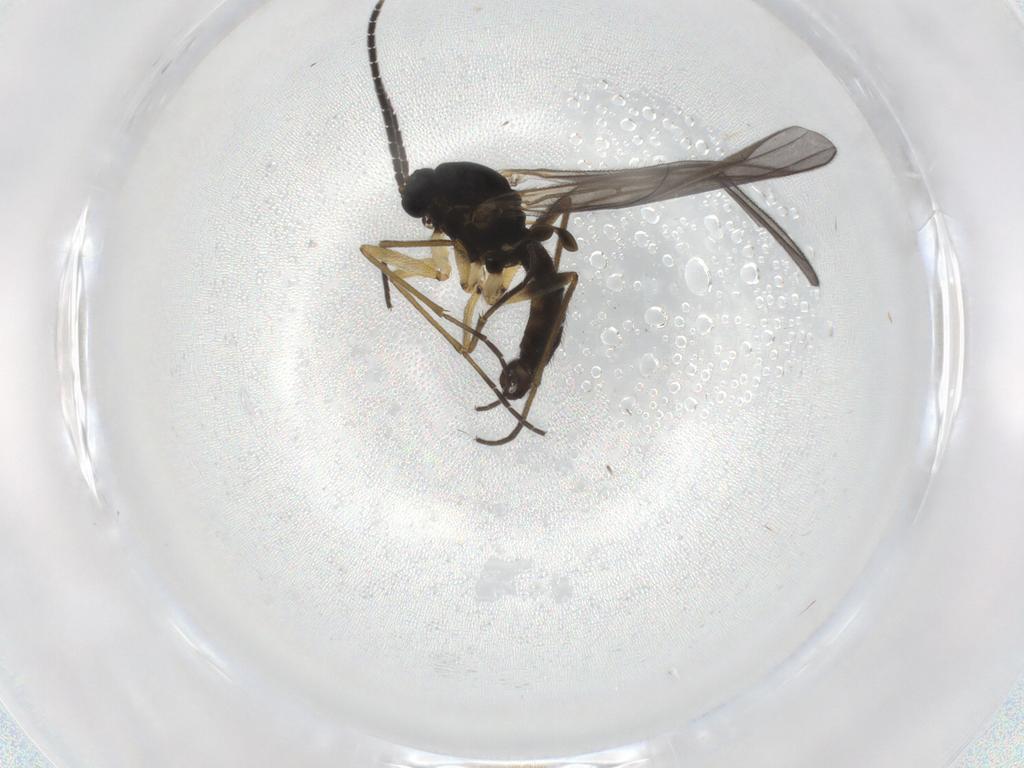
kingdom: Animalia
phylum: Arthropoda
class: Insecta
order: Diptera
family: Sciaridae
